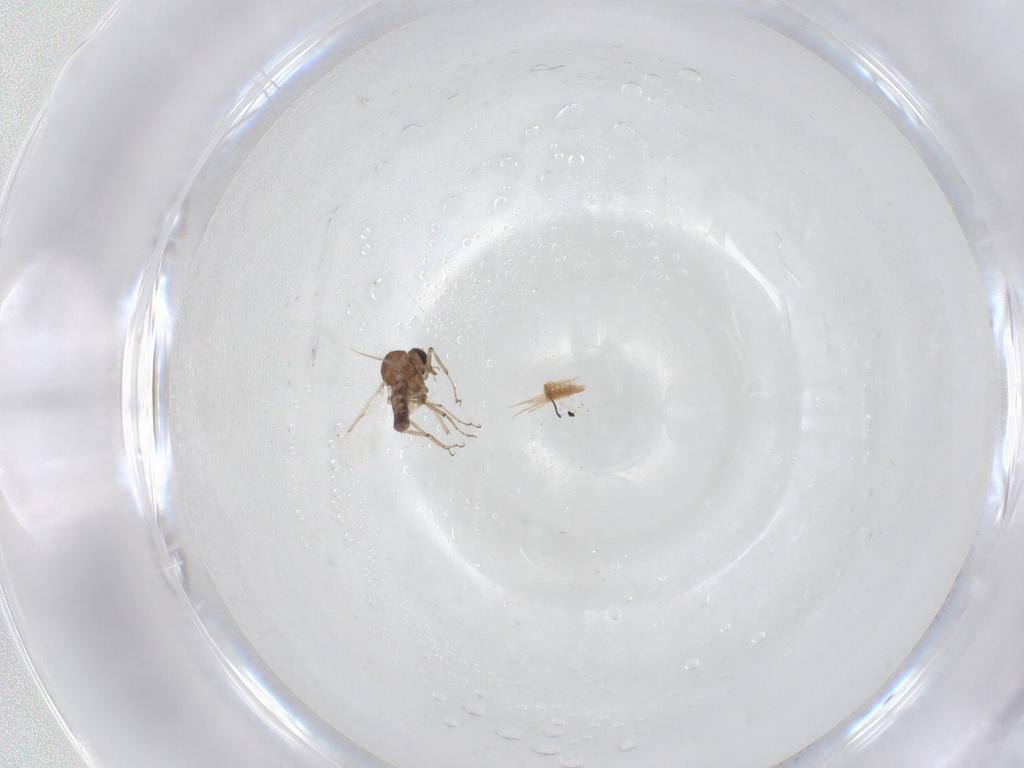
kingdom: Animalia
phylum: Arthropoda
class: Insecta
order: Diptera
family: Ceratopogonidae
